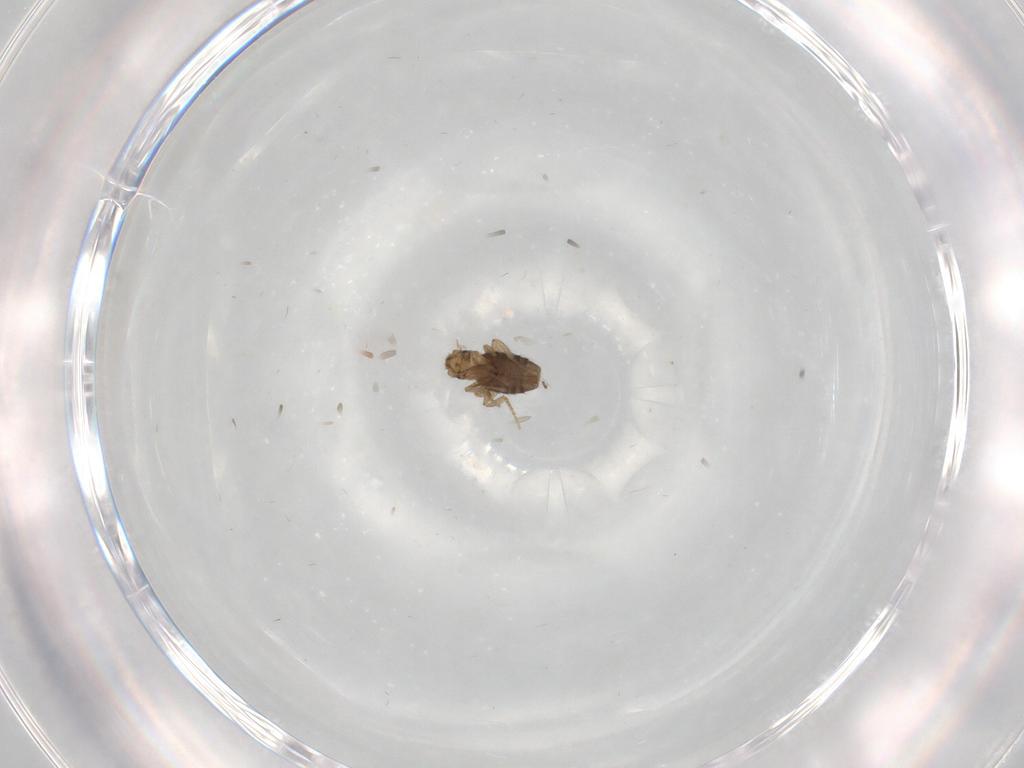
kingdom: Animalia
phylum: Arthropoda
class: Insecta
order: Diptera
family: Phoridae
